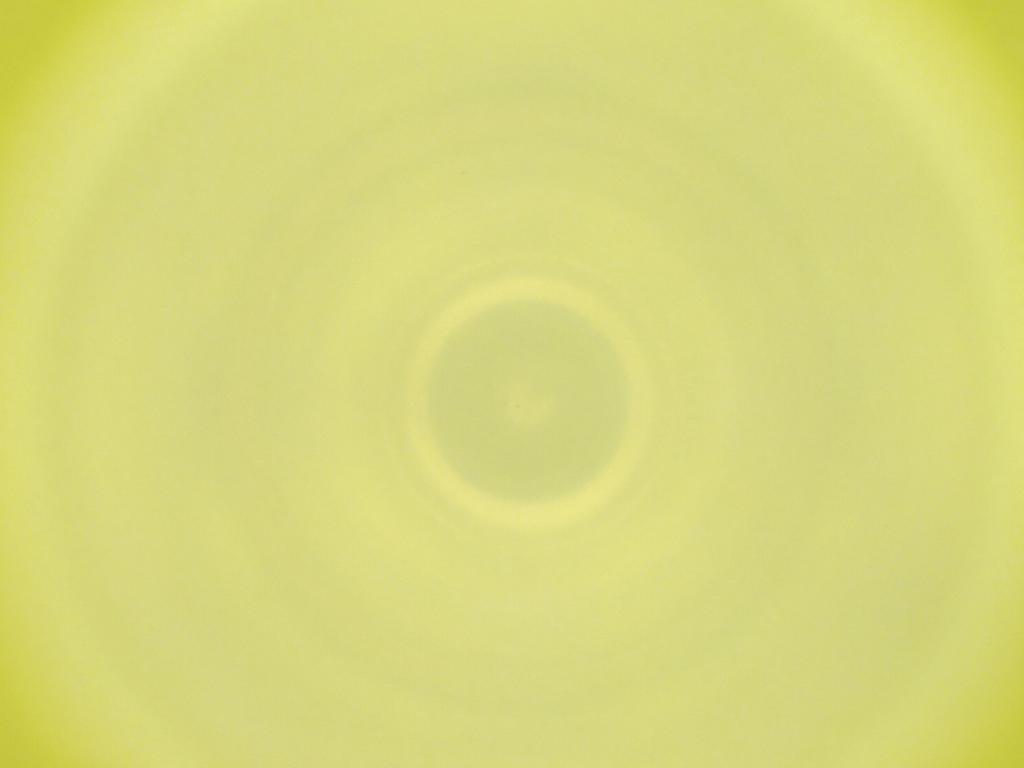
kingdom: Animalia
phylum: Arthropoda
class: Insecta
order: Diptera
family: Cecidomyiidae
